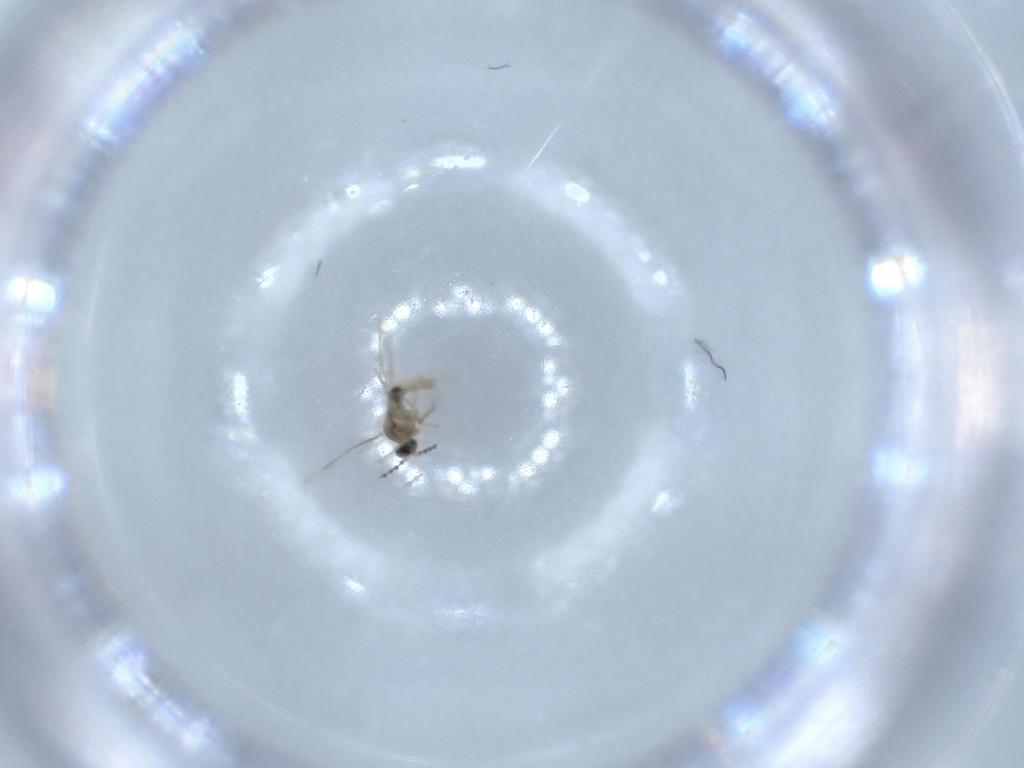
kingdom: Animalia
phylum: Arthropoda
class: Insecta
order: Diptera
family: Cecidomyiidae
